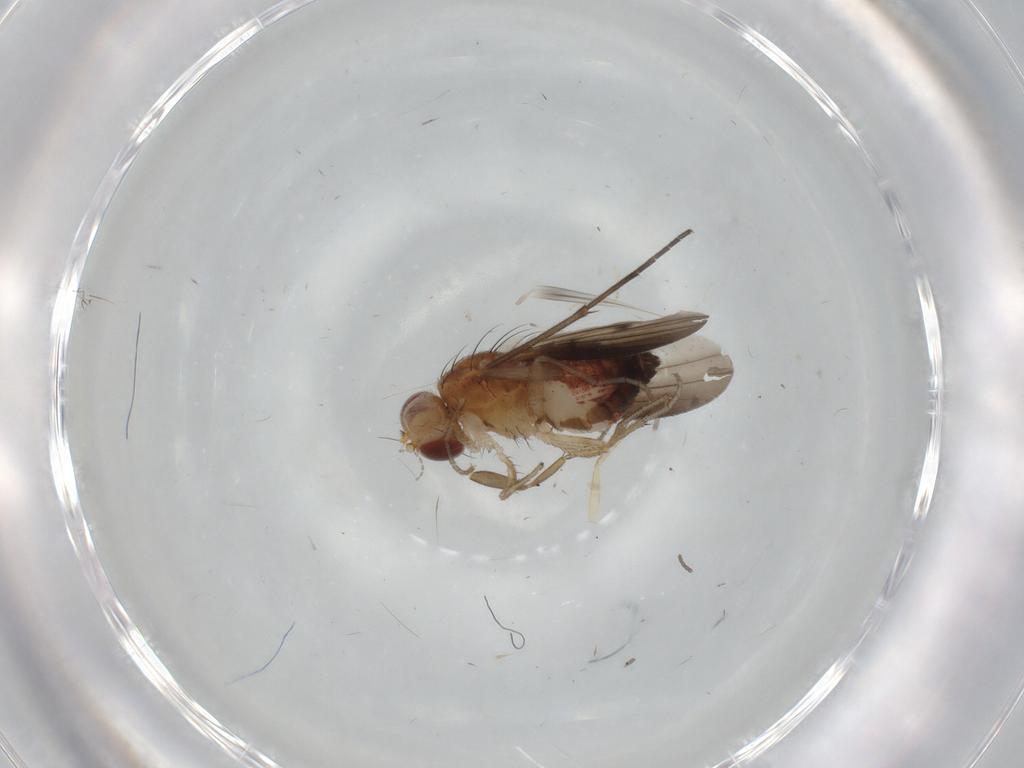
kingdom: Animalia
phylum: Arthropoda
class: Insecta
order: Diptera
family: Heleomyzidae
